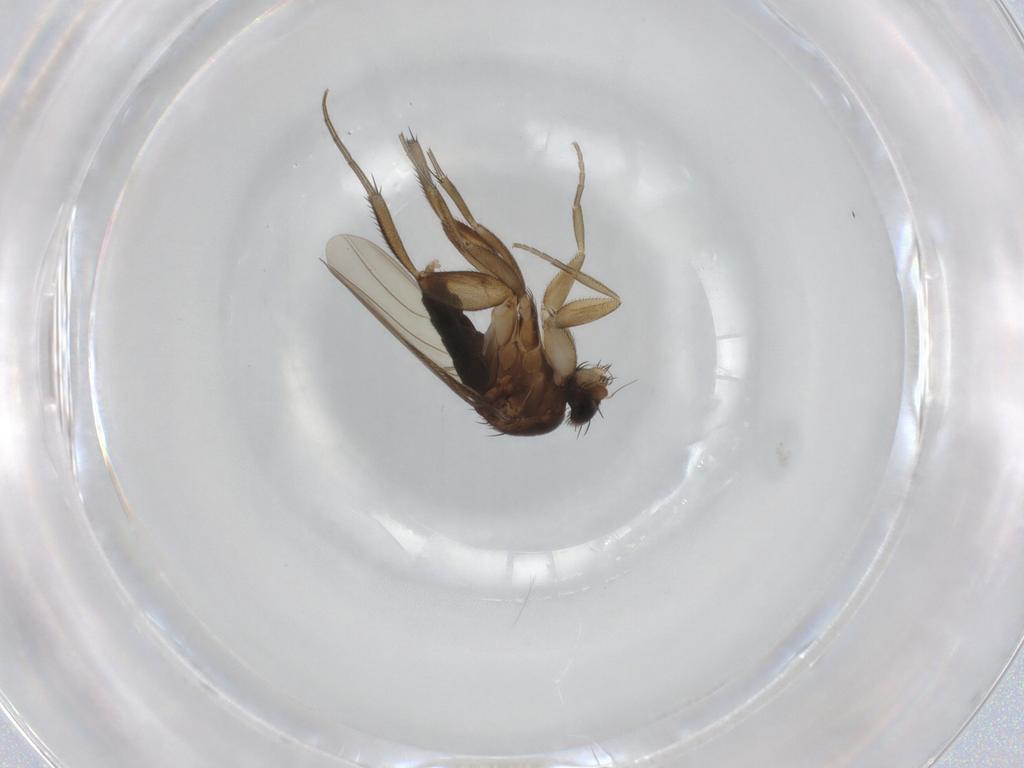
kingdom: Animalia
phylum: Arthropoda
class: Insecta
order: Diptera
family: Phoridae
